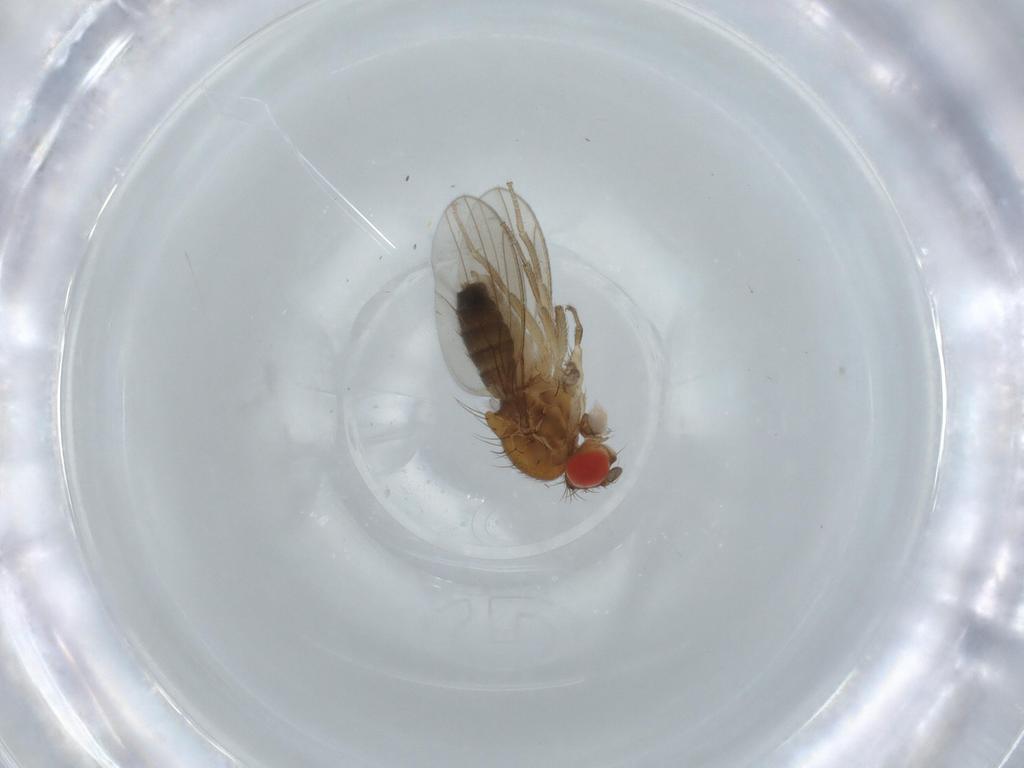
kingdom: Animalia
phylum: Arthropoda
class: Insecta
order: Diptera
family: Drosophilidae
